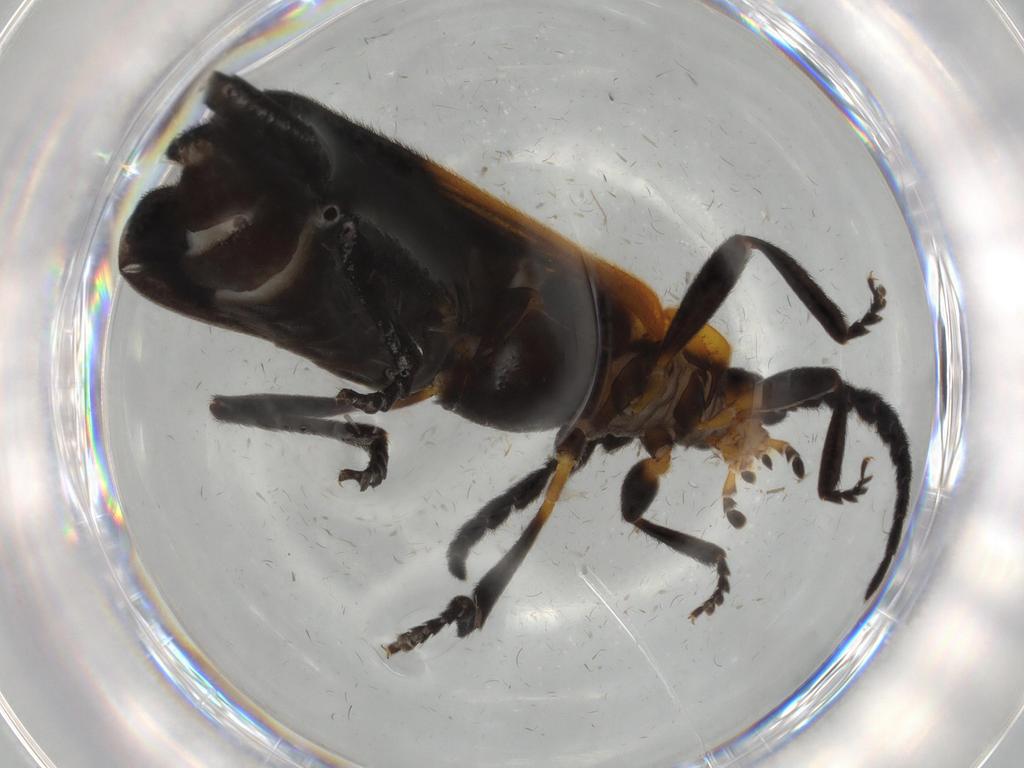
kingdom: Animalia
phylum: Arthropoda
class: Insecta
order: Coleoptera
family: Lycidae
